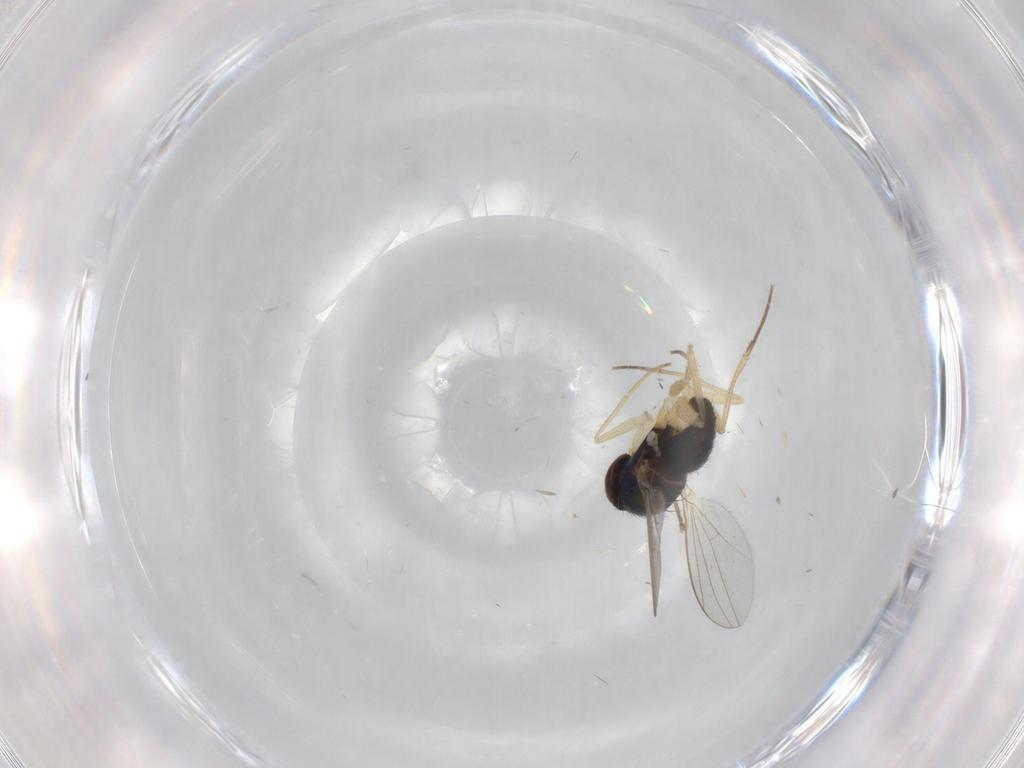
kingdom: Animalia
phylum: Arthropoda
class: Insecta
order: Diptera
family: Dolichopodidae
